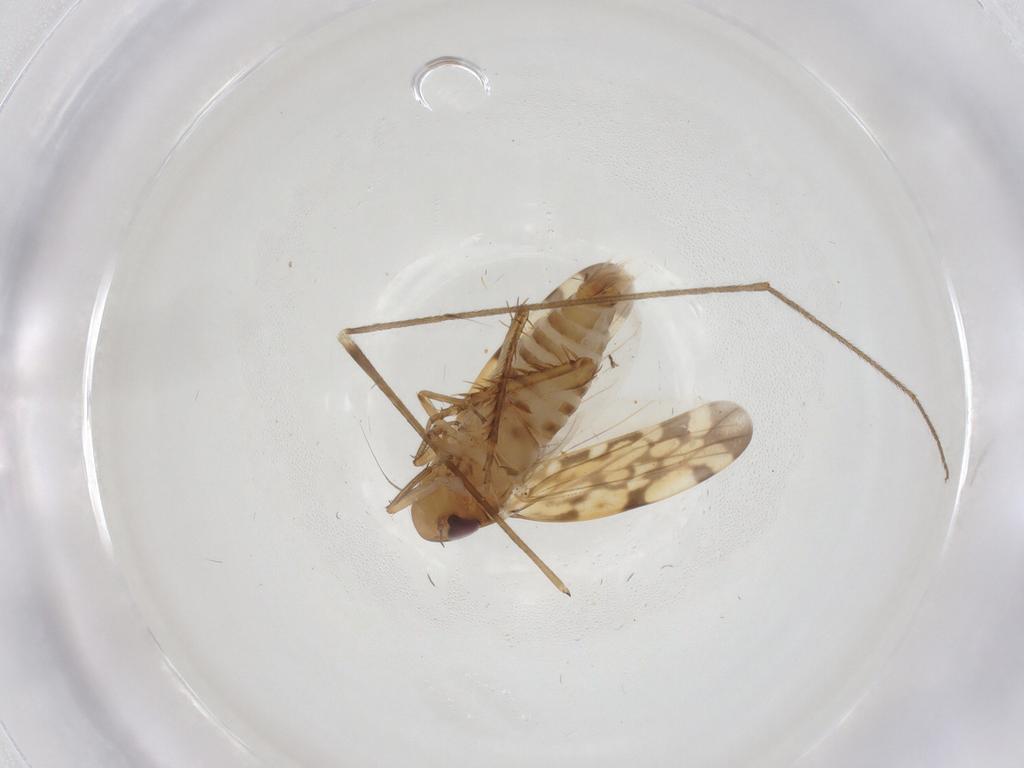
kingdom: Animalia
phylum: Arthropoda
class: Insecta
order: Hemiptera
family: Cicadellidae
